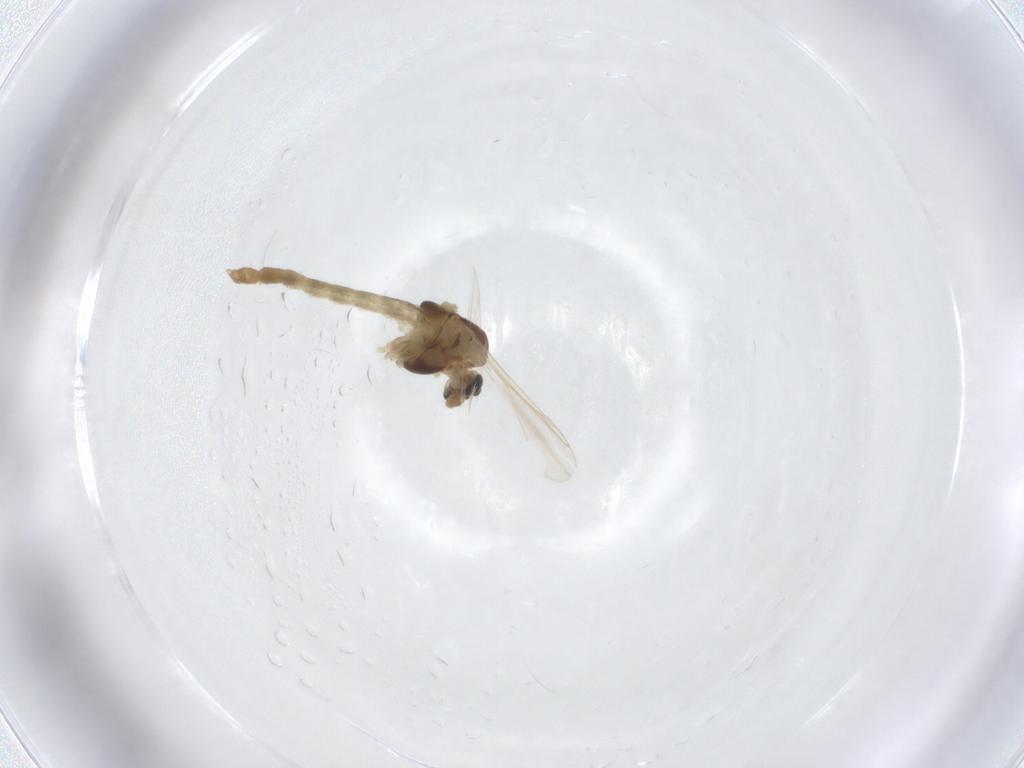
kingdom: Animalia
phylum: Arthropoda
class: Insecta
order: Diptera
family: Chironomidae
